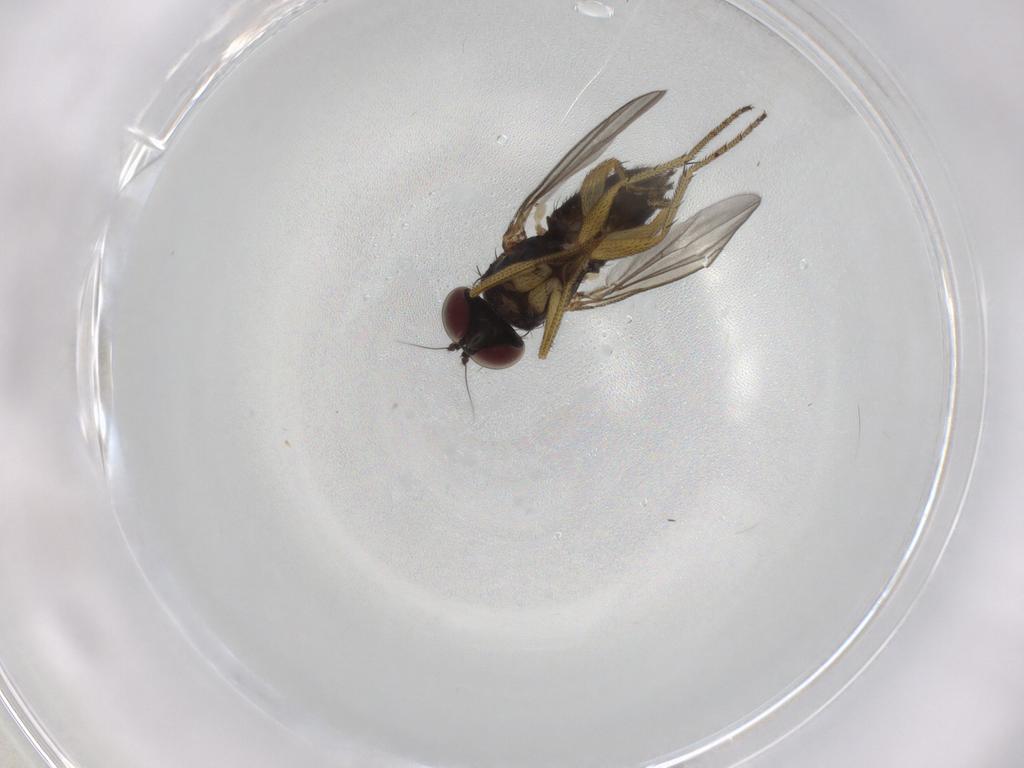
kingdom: Animalia
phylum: Arthropoda
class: Insecta
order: Diptera
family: Dolichopodidae
